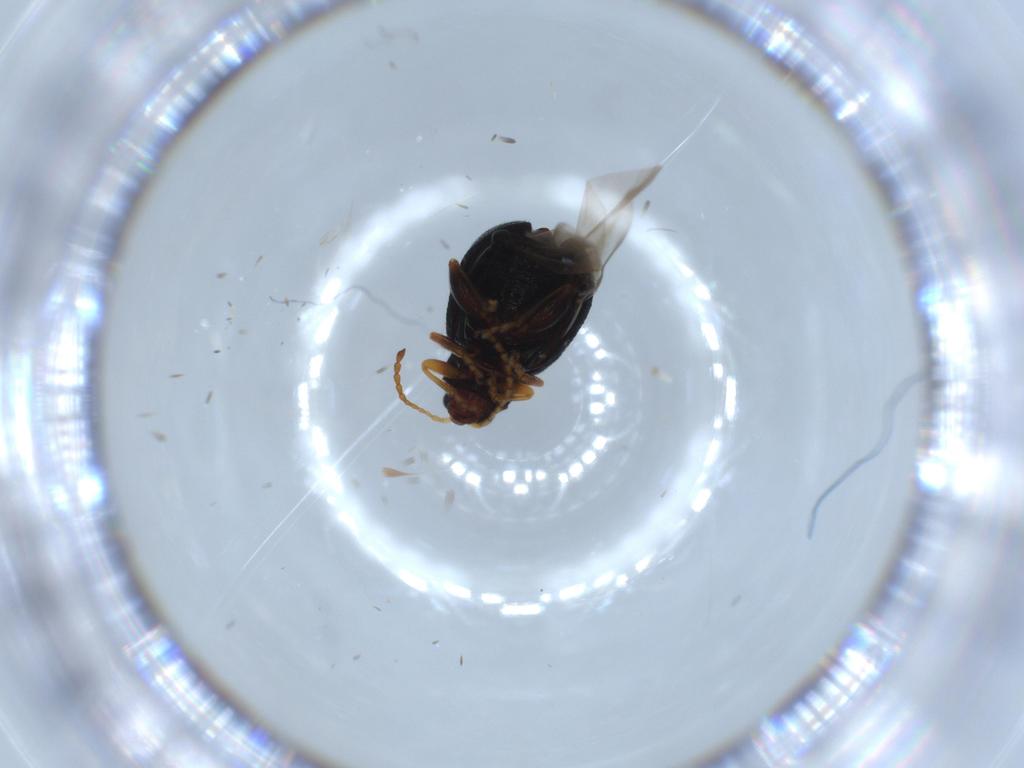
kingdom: Animalia
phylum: Arthropoda
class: Insecta
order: Coleoptera
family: Chrysomelidae
